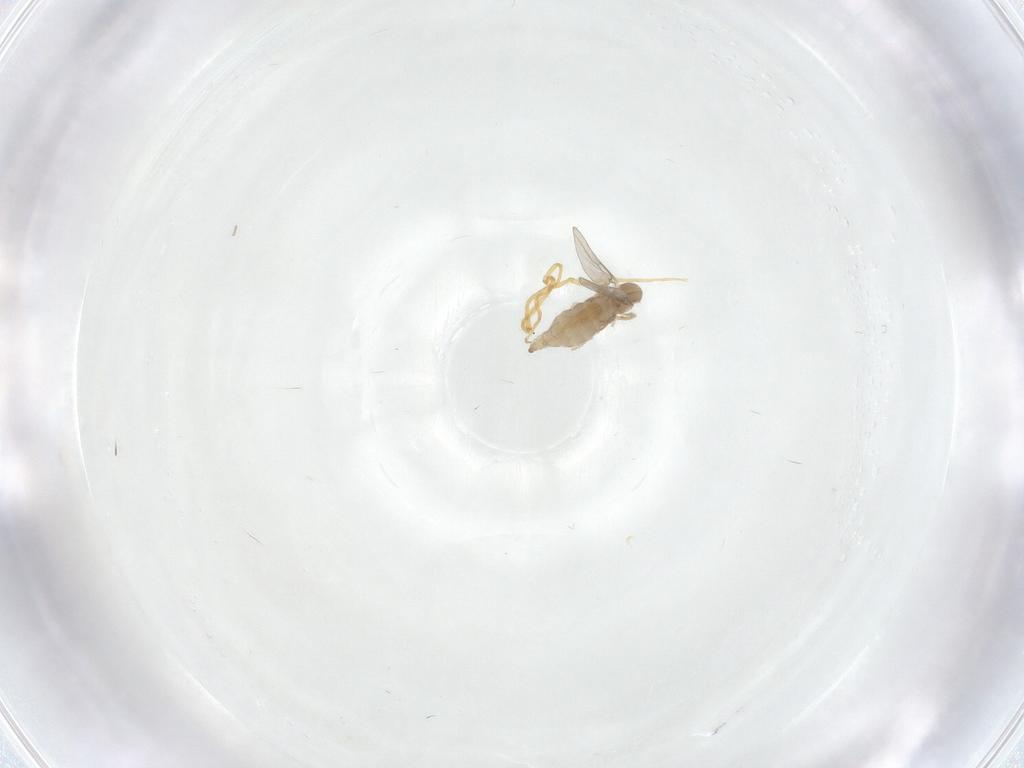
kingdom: Animalia
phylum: Arthropoda
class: Insecta
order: Diptera
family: Cecidomyiidae
